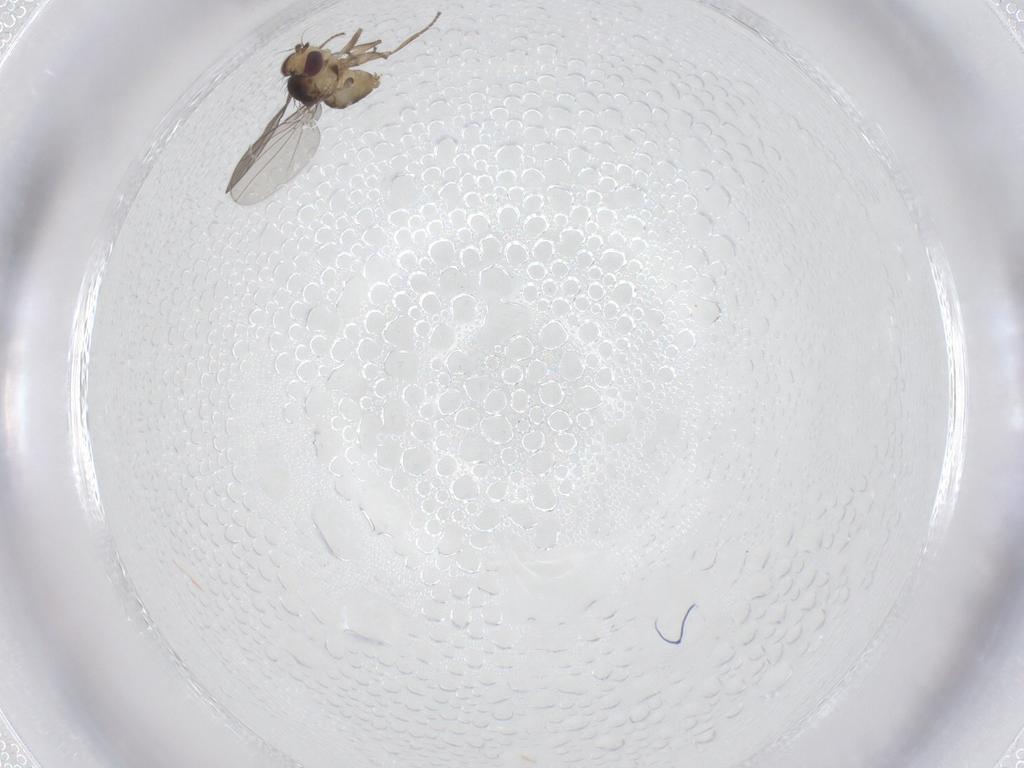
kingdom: Animalia
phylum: Arthropoda
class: Insecta
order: Diptera
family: Agromyzidae
